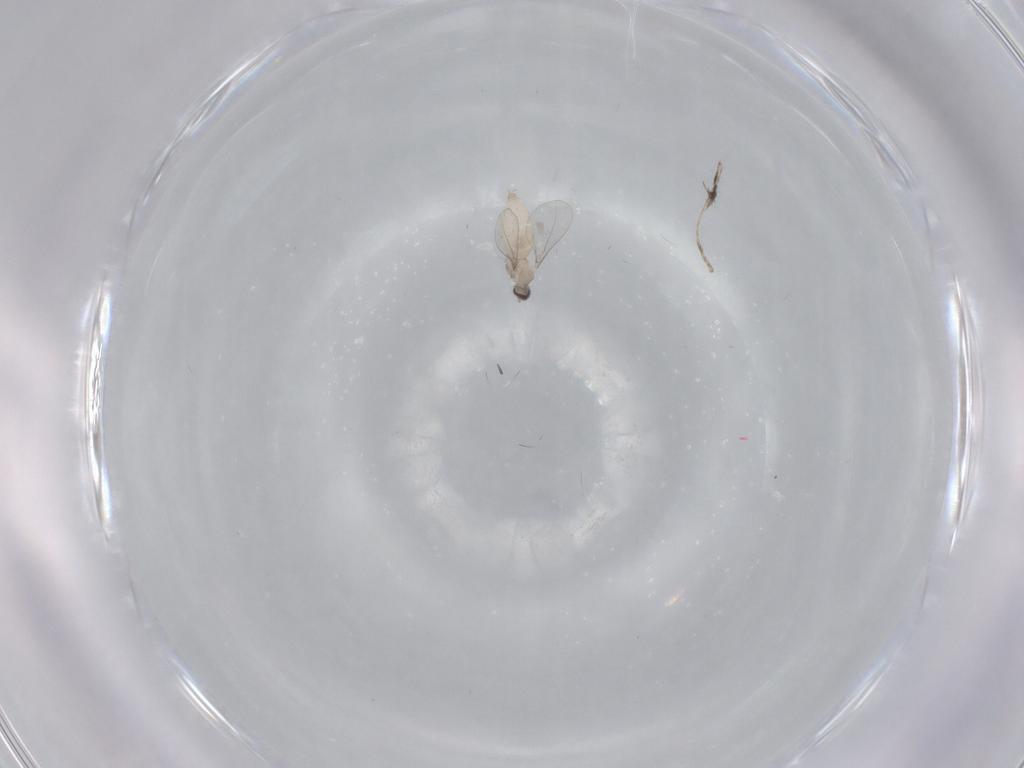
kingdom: Animalia
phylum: Arthropoda
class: Insecta
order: Diptera
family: Cecidomyiidae
